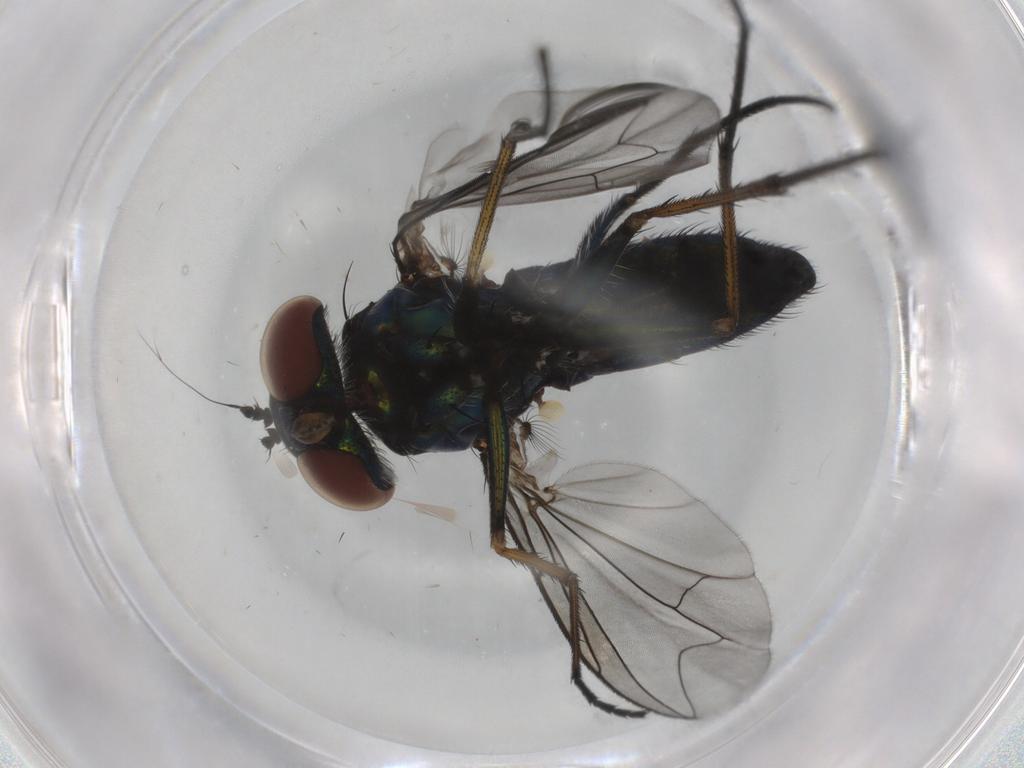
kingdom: Animalia
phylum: Arthropoda
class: Insecta
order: Diptera
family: Dolichopodidae
